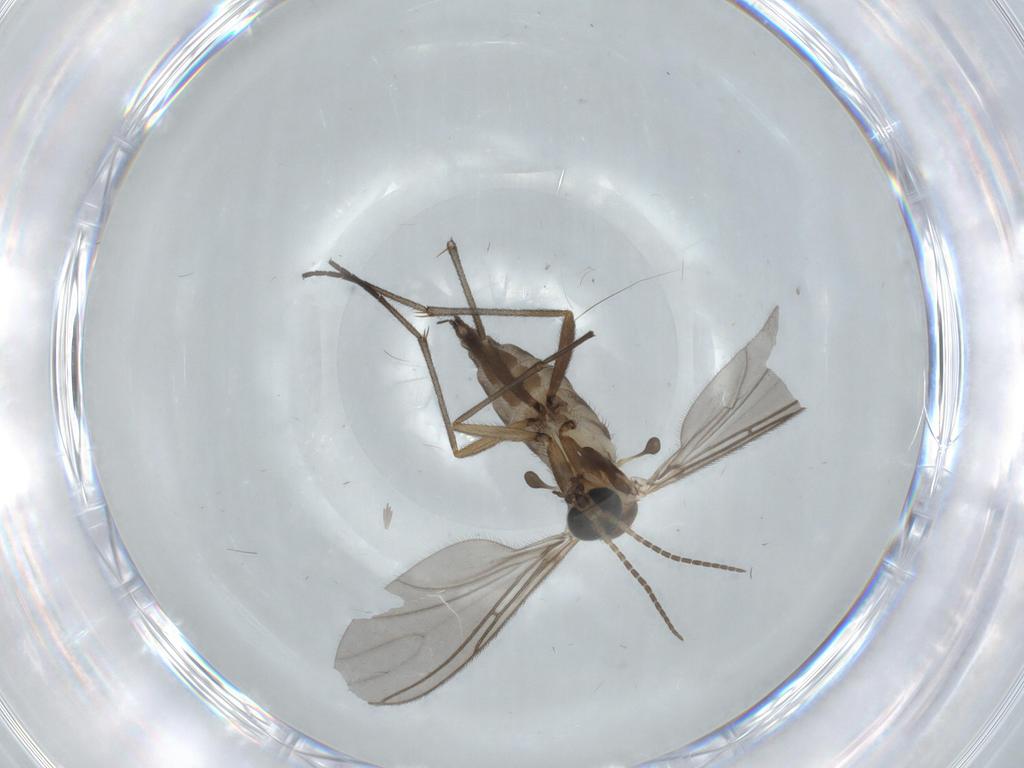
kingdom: Animalia
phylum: Arthropoda
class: Insecta
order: Diptera
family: Sciaridae
